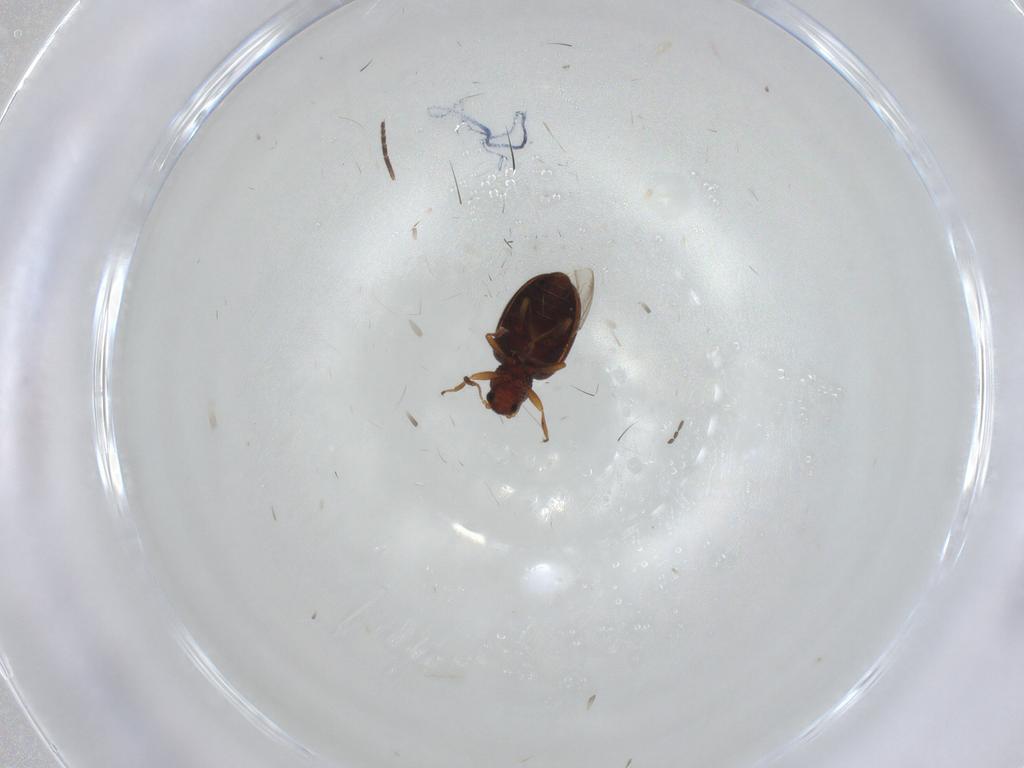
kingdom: Animalia
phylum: Arthropoda
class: Insecta
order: Coleoptera
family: Latridiidae
